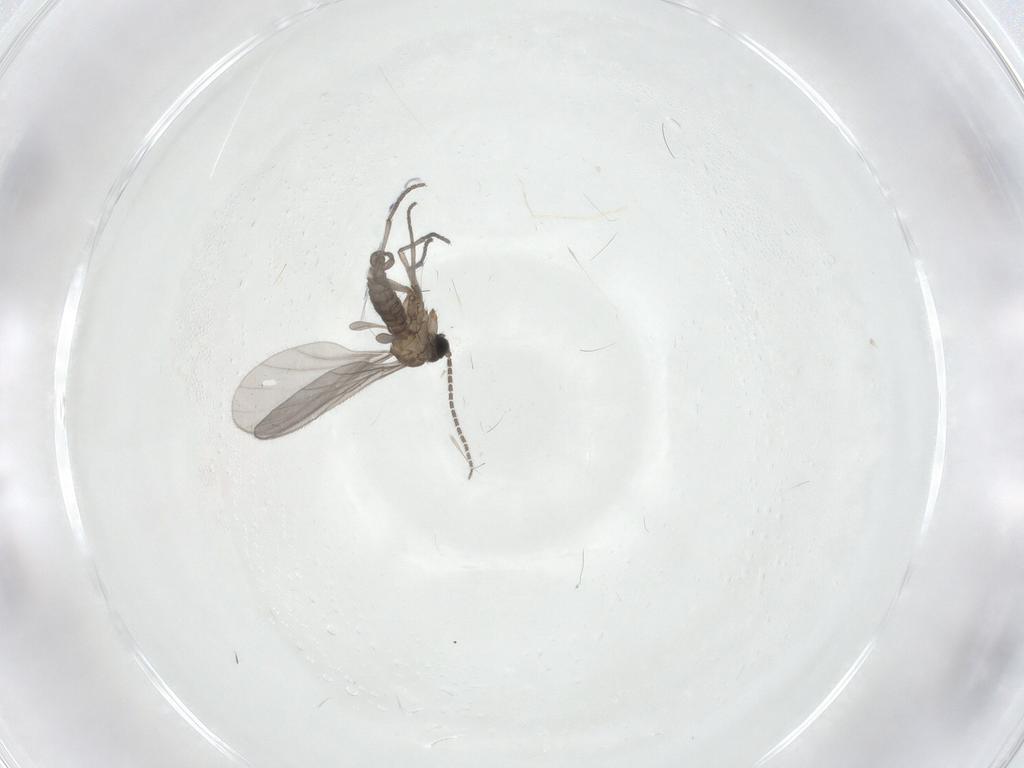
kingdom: Animalia
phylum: Arthropoda
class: Insecta
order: Diptera
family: Sciaridae
